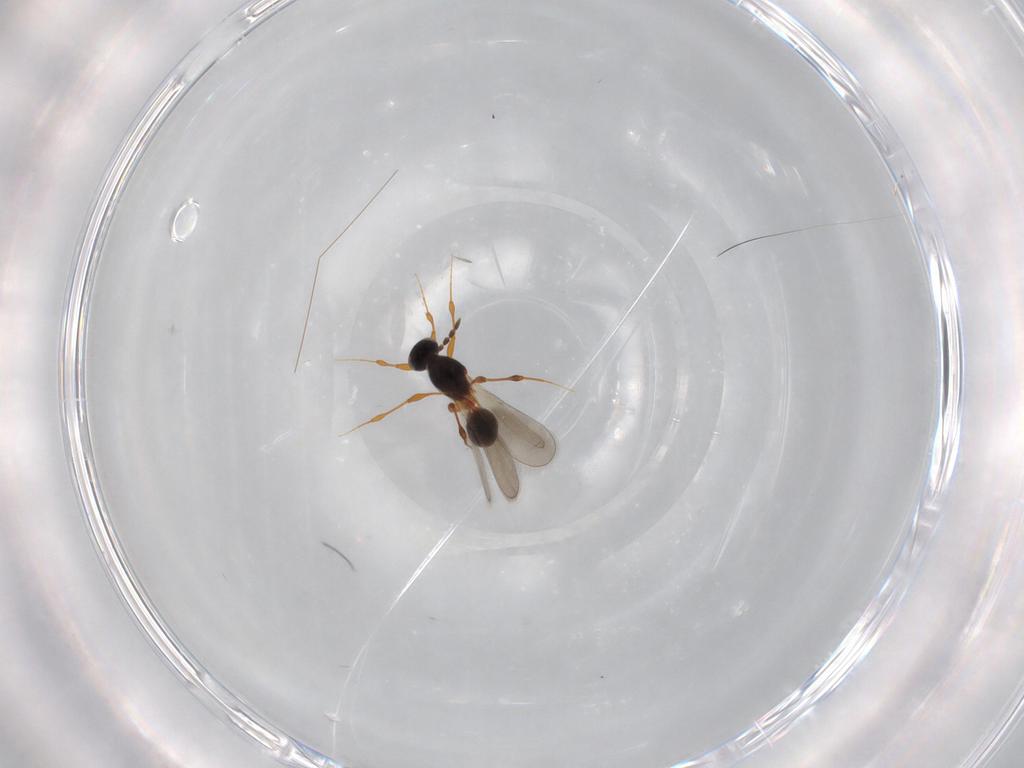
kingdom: Animalia
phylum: Arthropoda
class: Insecta
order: Hymenoptera
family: Platygastridae
